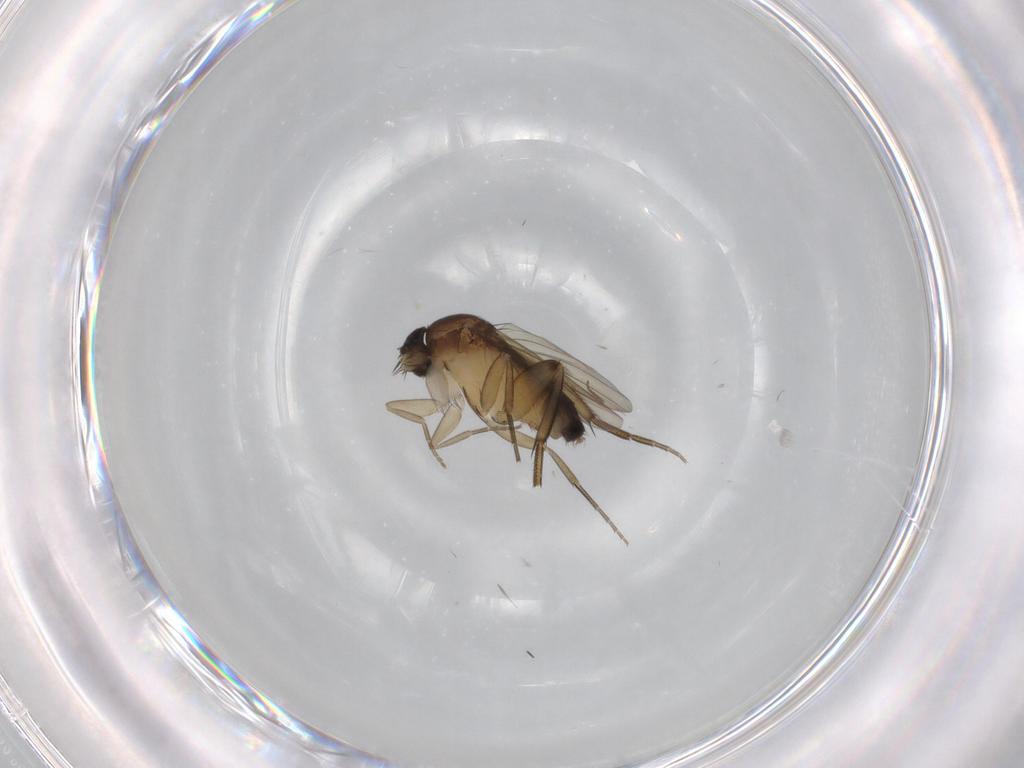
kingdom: Animalia
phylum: Arthropoda
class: Insecta
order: Diptera
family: Phoridae
